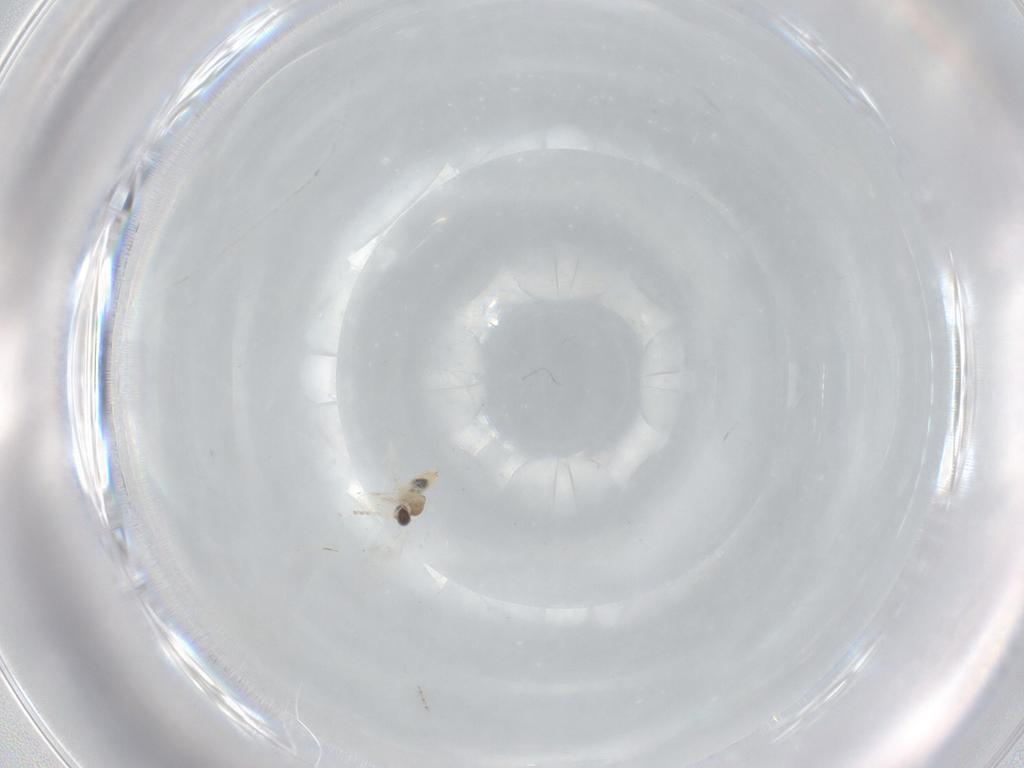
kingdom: Animalia
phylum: Arthropoda
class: Insecta
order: Diptera
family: Cecidomyiidae
